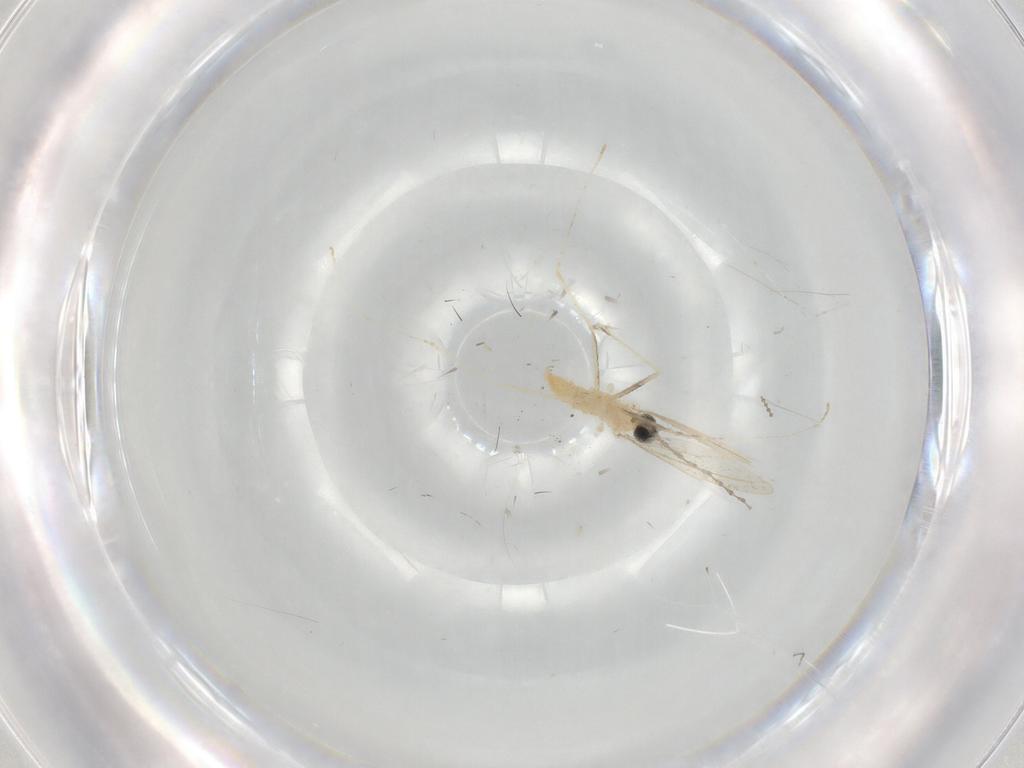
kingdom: Animalia
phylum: Arthropoda
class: Insecta
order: Diptera
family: Cecidomyiidae
